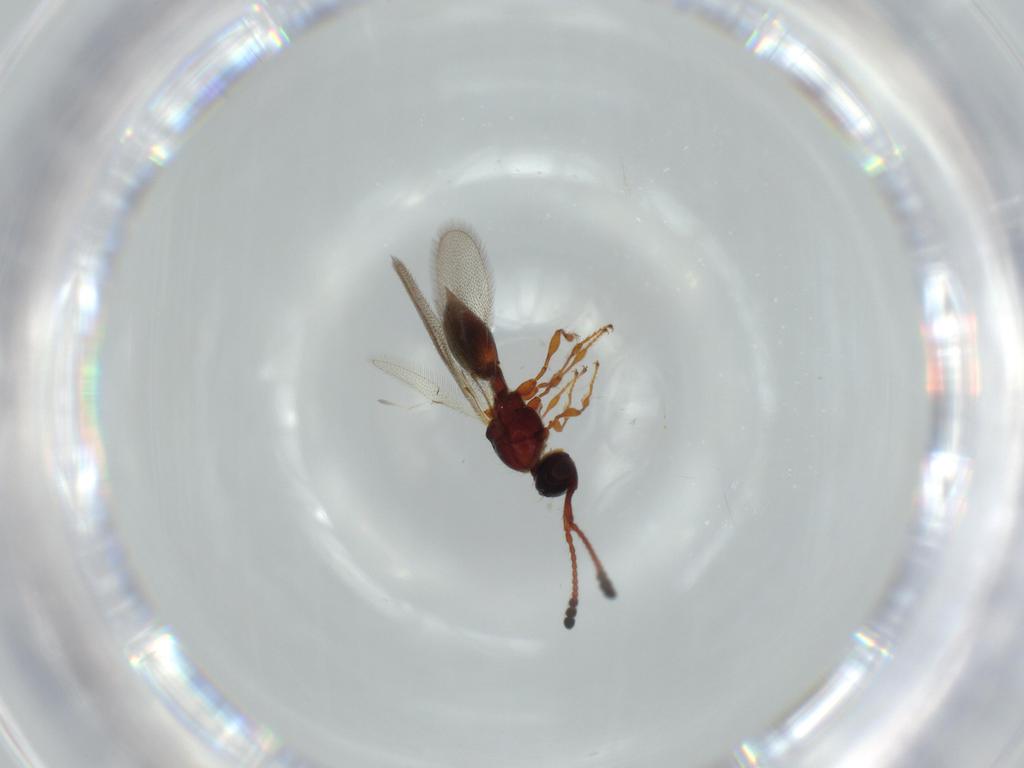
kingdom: Animalia
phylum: Arthropoda
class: Insecta
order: Hymenoptera
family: Diapriidae
